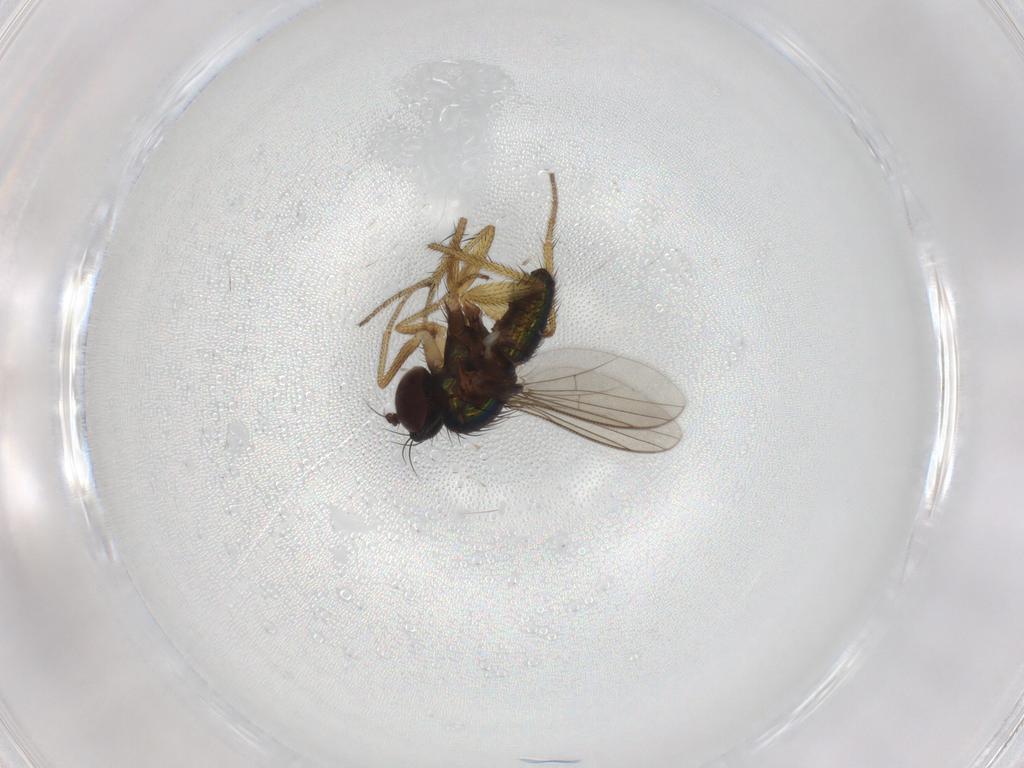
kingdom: Animalia
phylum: Arthropoda
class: Insecta
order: Diptera
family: Dolichopodidae
